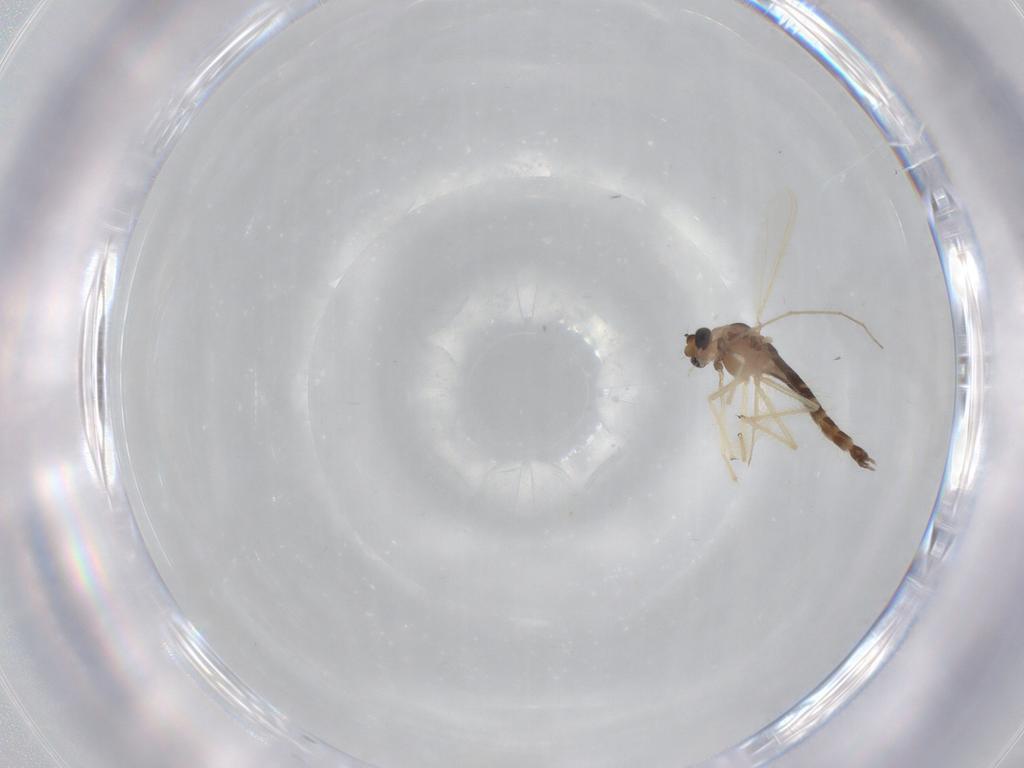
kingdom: Animalia
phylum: Arthropoda
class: Insecta
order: Diptera
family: Chironomidae
